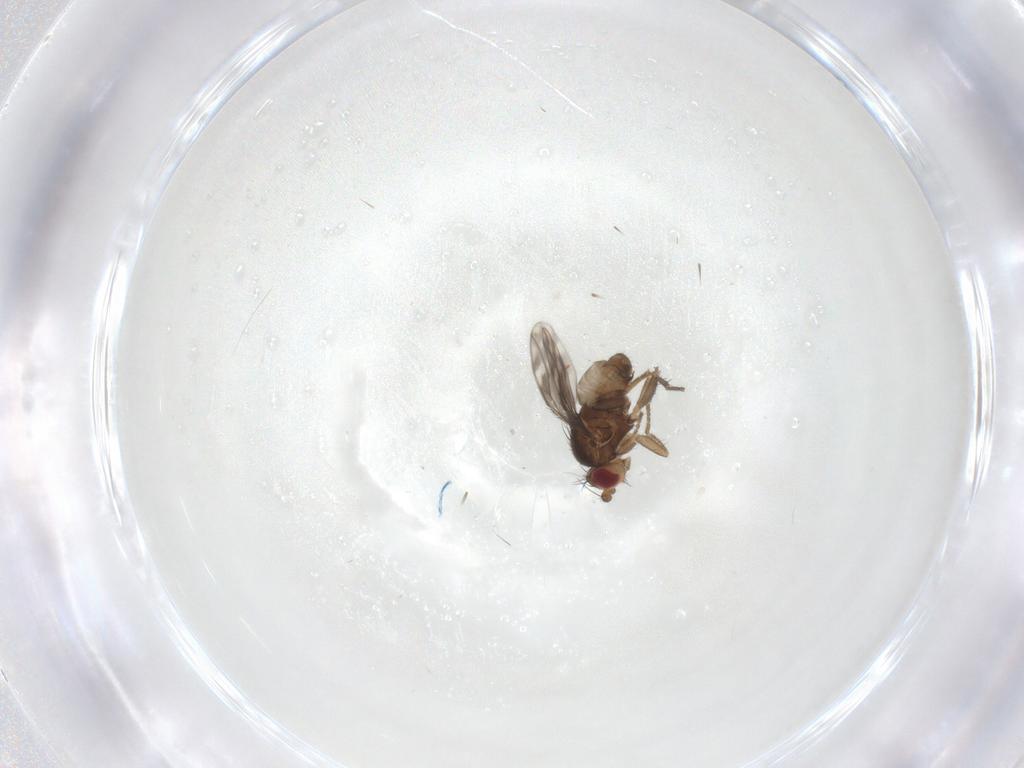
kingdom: Animalia
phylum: Arthropoda
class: Insecta
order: Diptera
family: Sphaeroceridae
